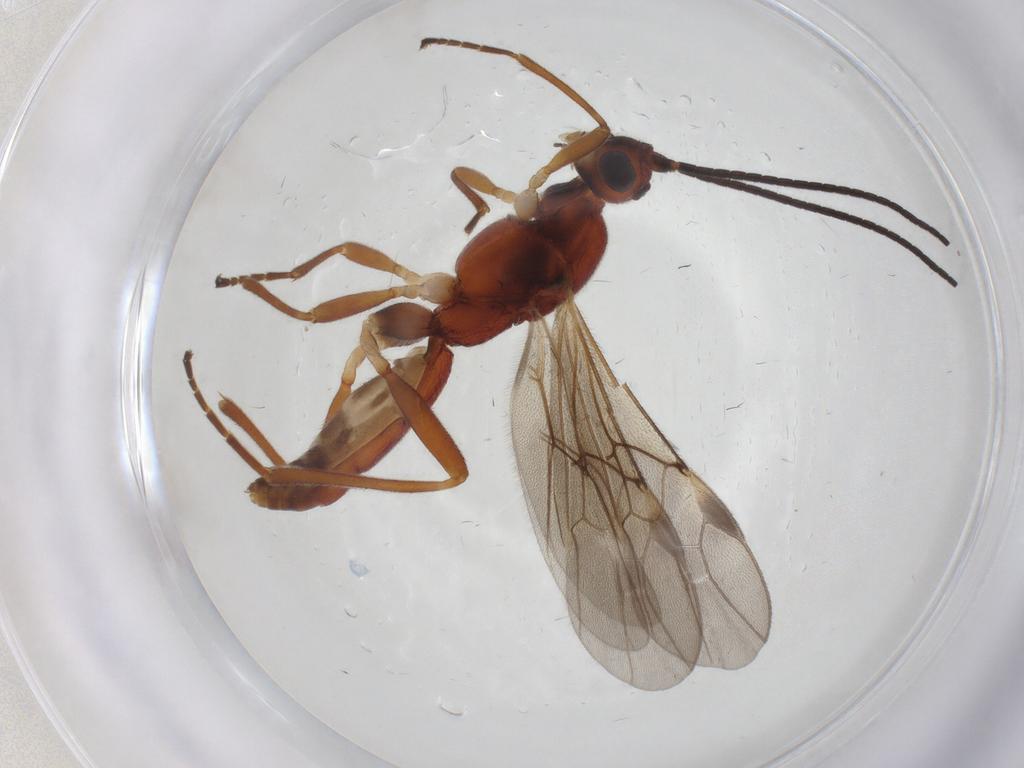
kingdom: Animalia
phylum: Arthropoda
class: Insecta
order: Hymenoptera
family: Braconidae
